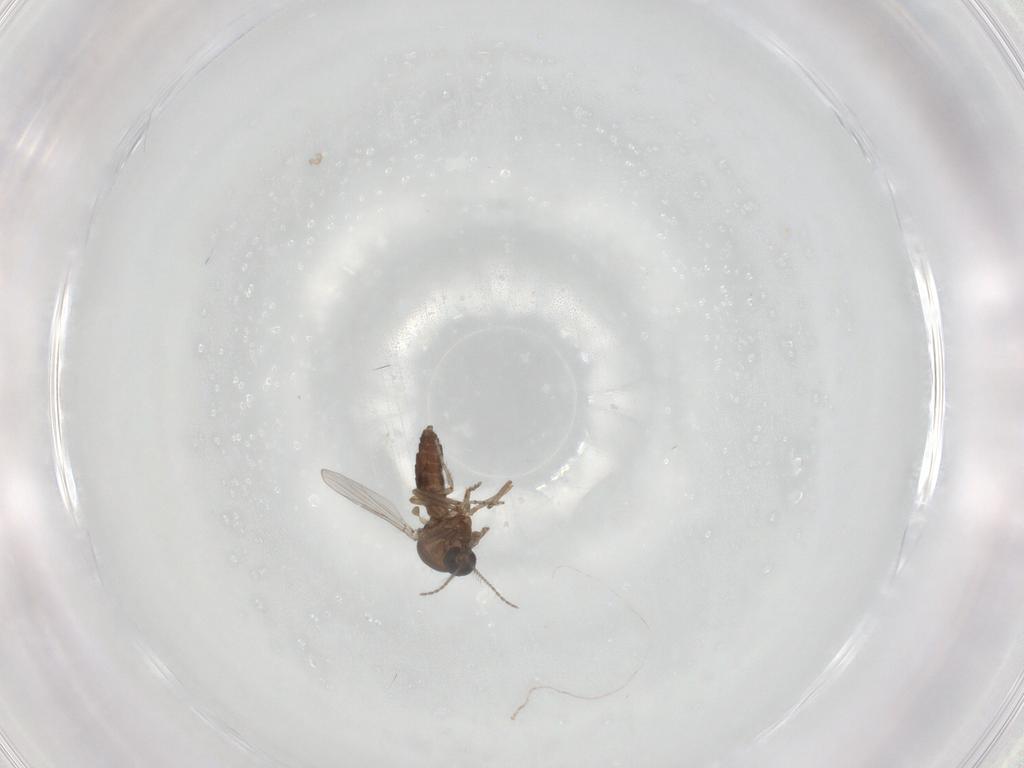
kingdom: Animalia
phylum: Arthropoda
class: Insecta
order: Diptera
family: Ceratopogonidae
